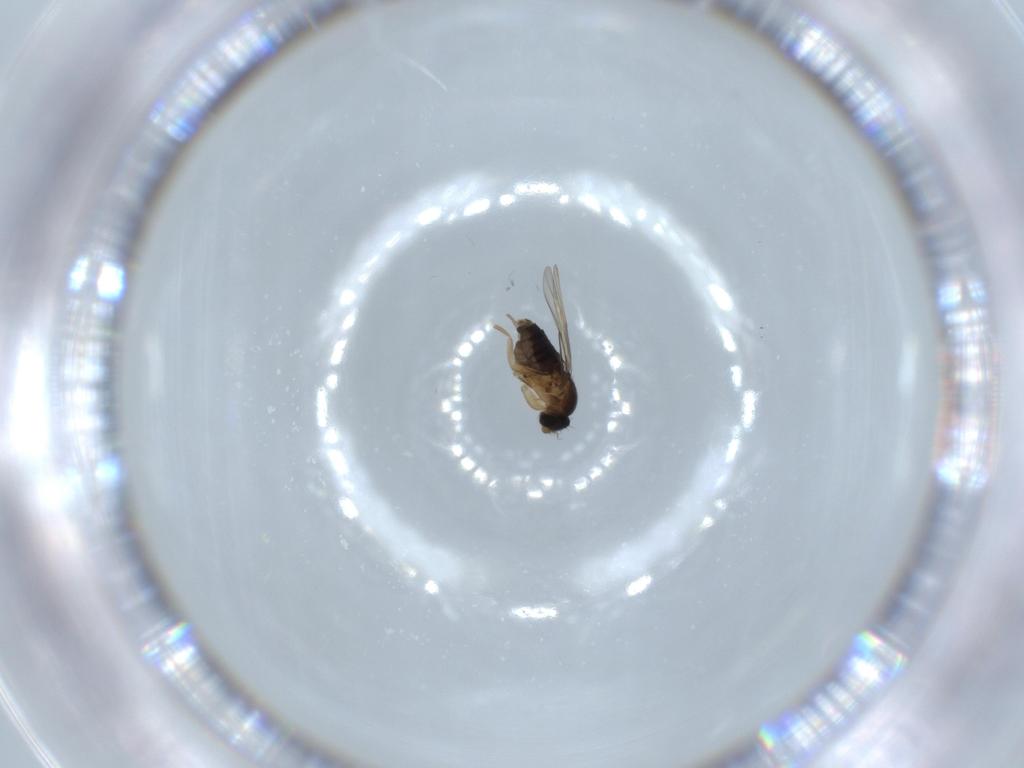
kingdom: Animalia
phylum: Arthropoda
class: Insecta
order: Diptera
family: Phoridae
